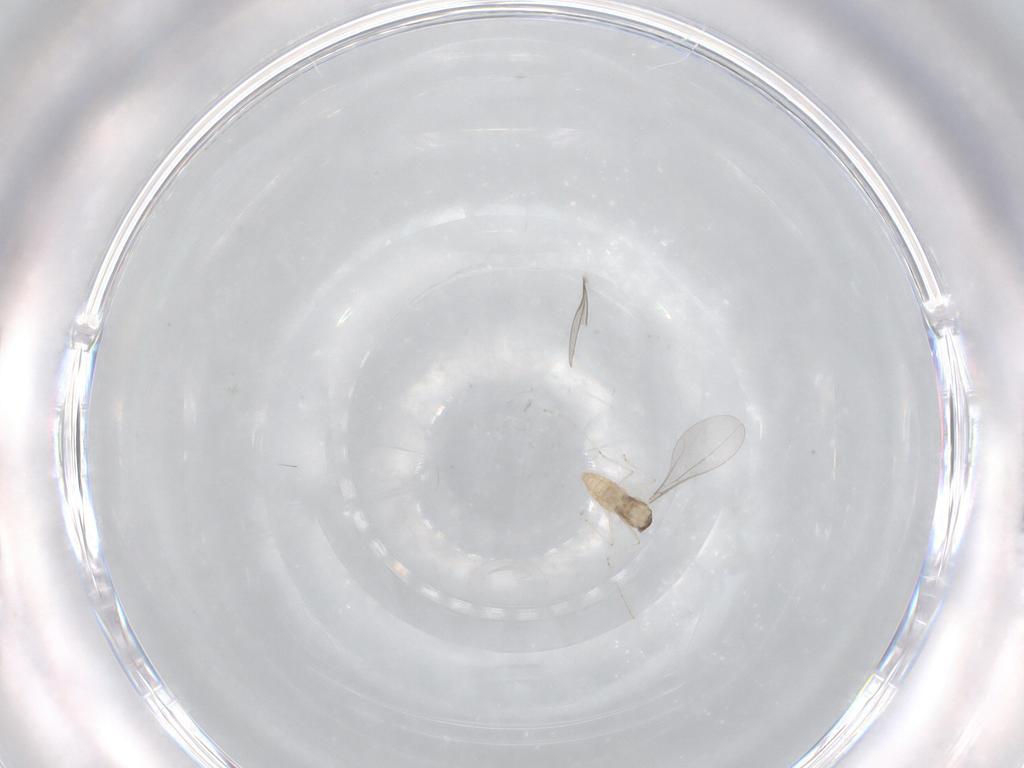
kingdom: Animalia
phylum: Arthropoda
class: Insecta
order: Diptera
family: Cecidomyiidae
